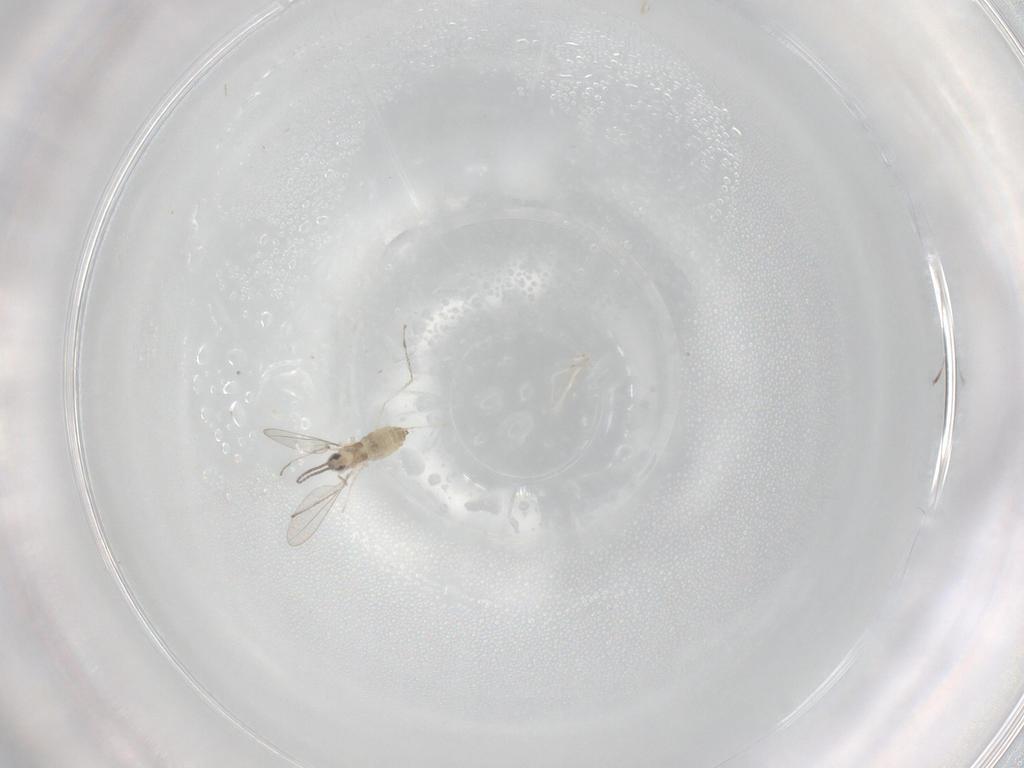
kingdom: Animalia
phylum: Arthropoda
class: Insecta
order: Diptera
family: Cecidomyiidae
